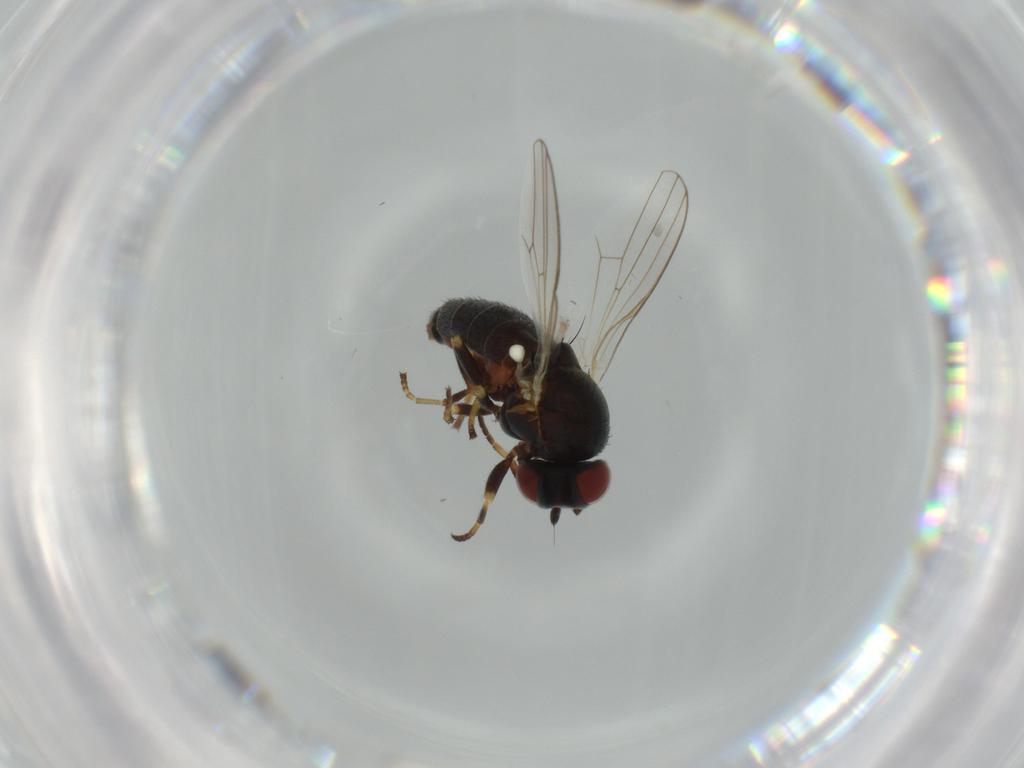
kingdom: Animalia
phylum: Arthropoda
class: Insecta
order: Diptera
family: Chamaemyiidae
